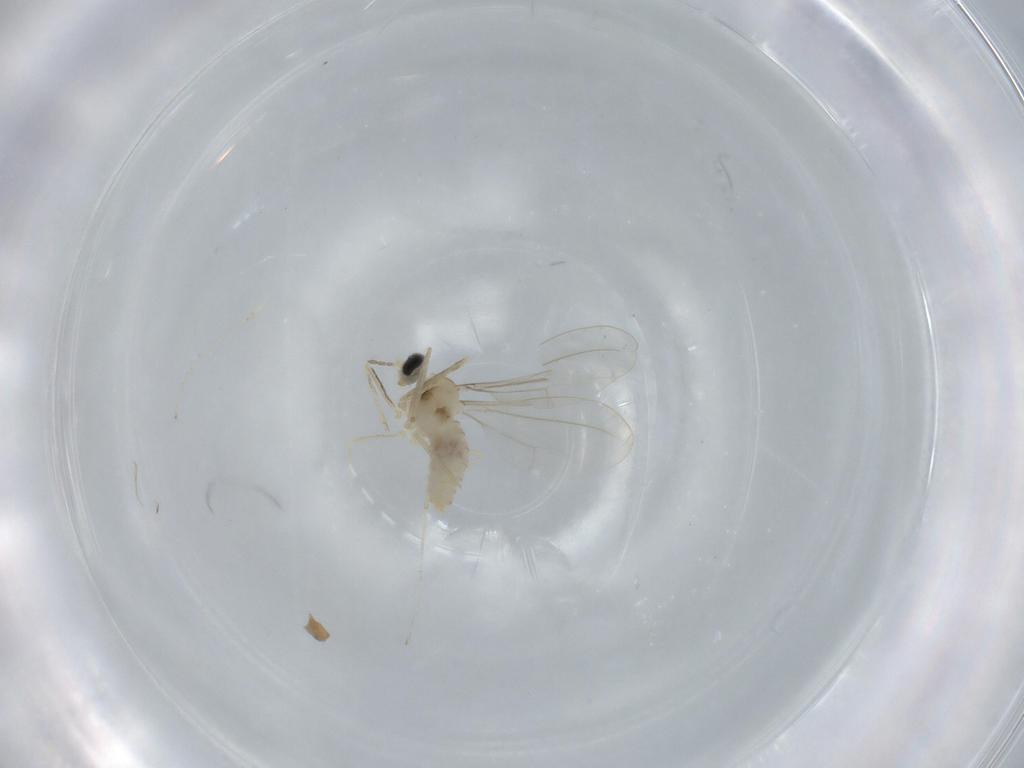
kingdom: Animalia
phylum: Arthropoda
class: Insecta
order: Diptera
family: Cecidomyiidae
